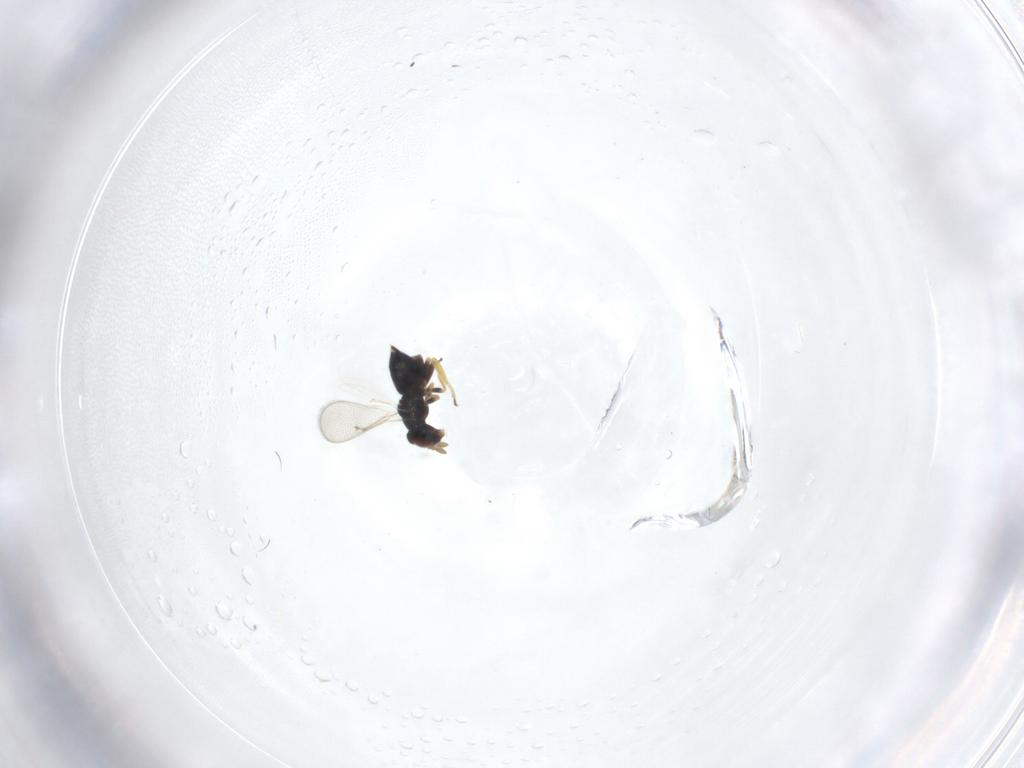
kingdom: Animalia
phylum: Arthropoda
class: Insecta
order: Hymenoptera
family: Eulophidae
